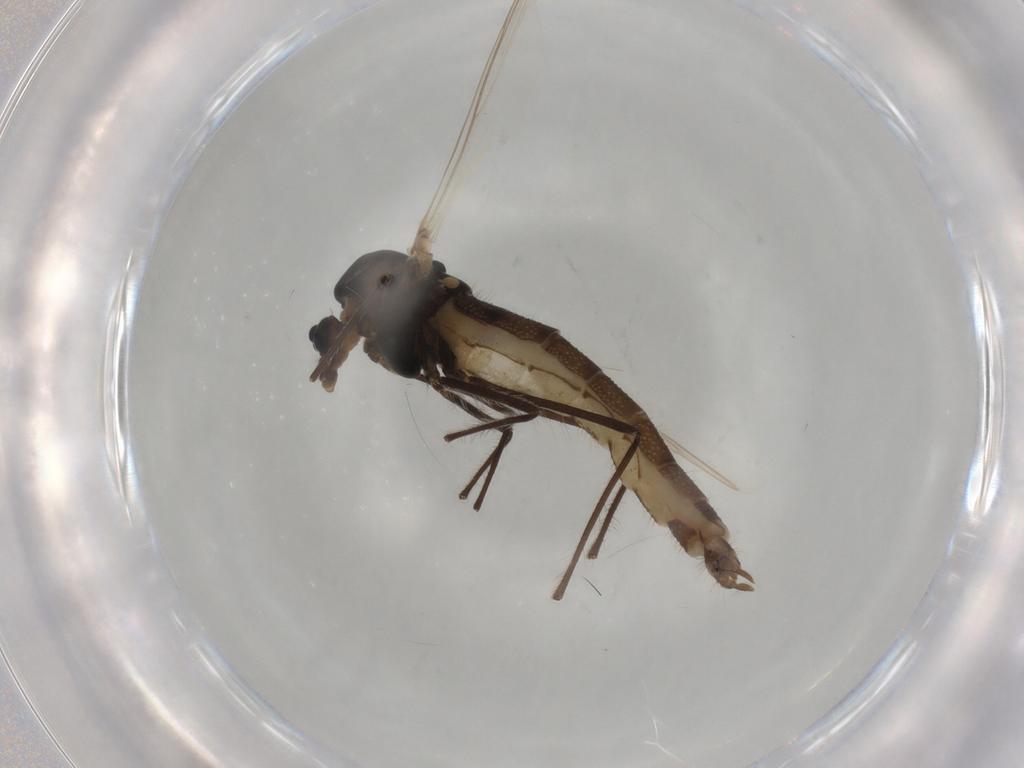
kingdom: Animalia
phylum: Arthropoda
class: Insecta
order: Diptera
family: Chironomidae
